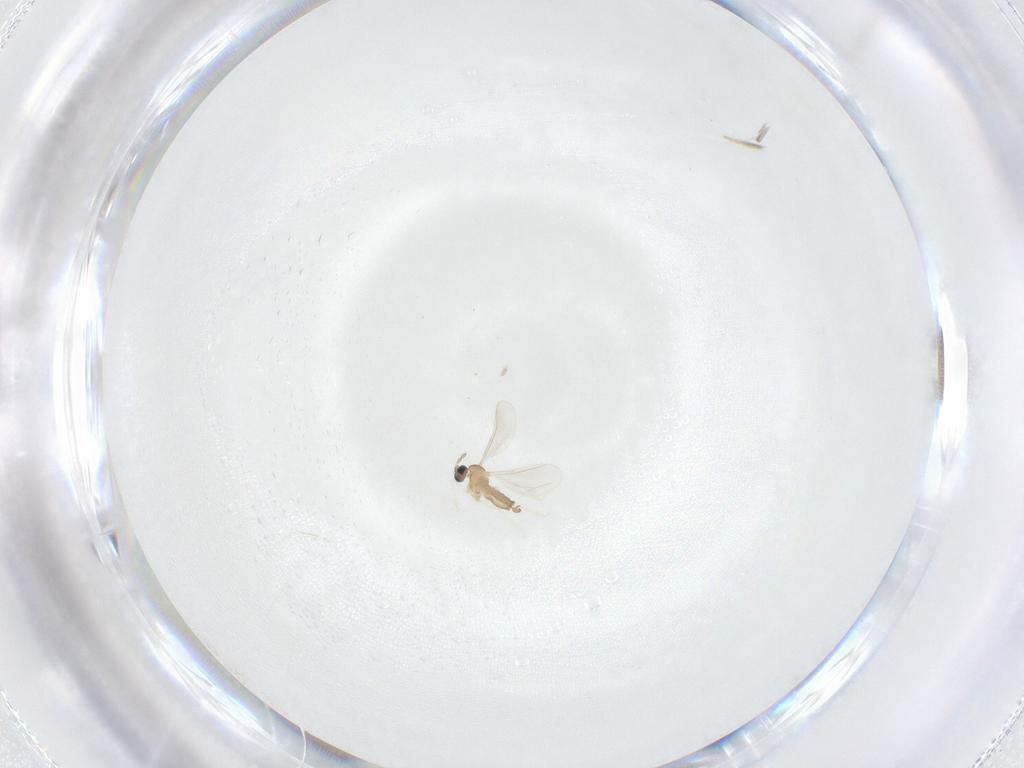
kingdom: Animalia
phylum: Arthropoda
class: Insecta
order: Diptera
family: Cecidomyiidae
